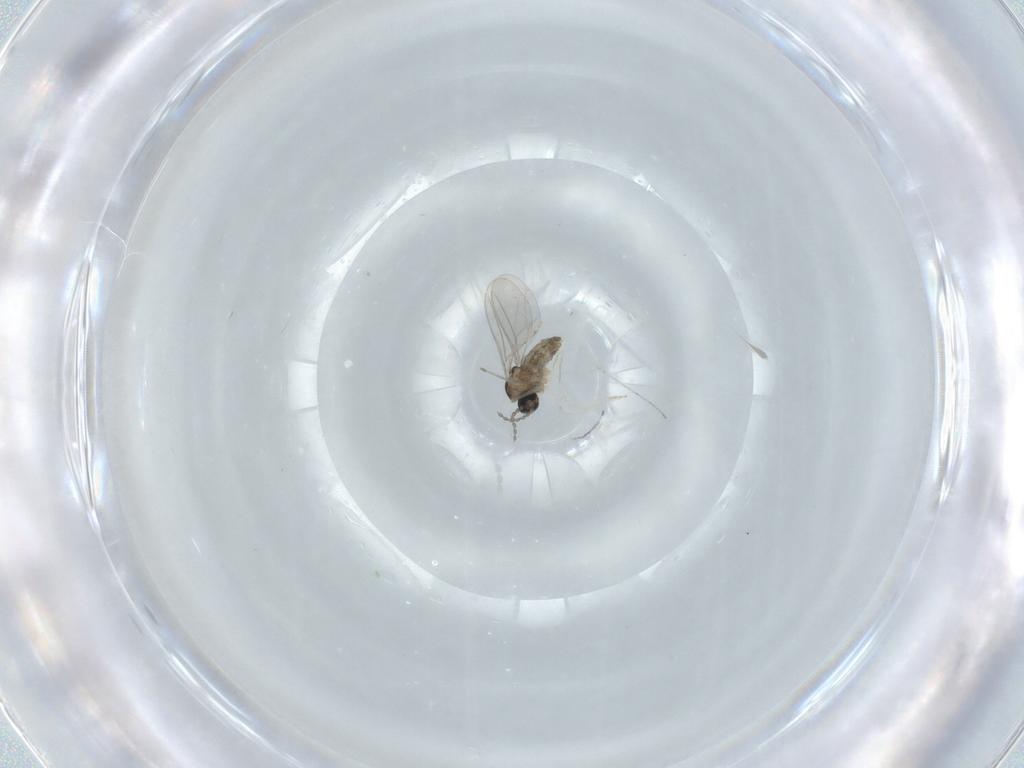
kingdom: Animalia
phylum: Arthropoda
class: Insecta
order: Diptera
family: Cecidomyiidae
